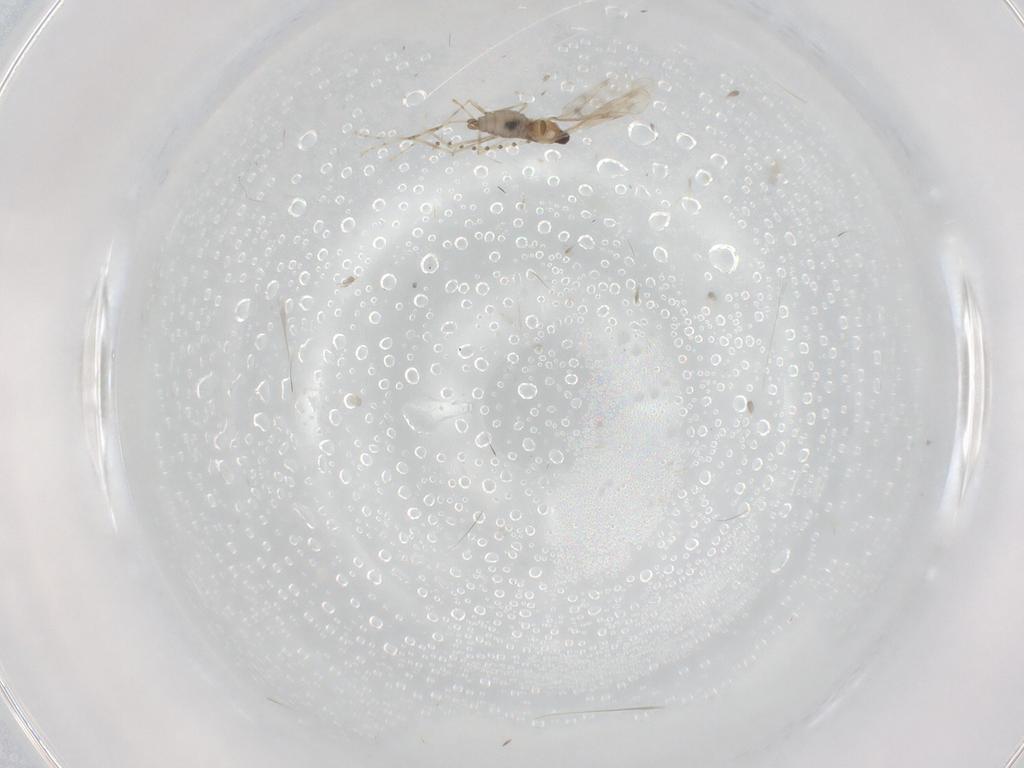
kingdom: Animalia
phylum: Arthropoda
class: Insecta
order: Diptera
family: Cecidomyiidae
